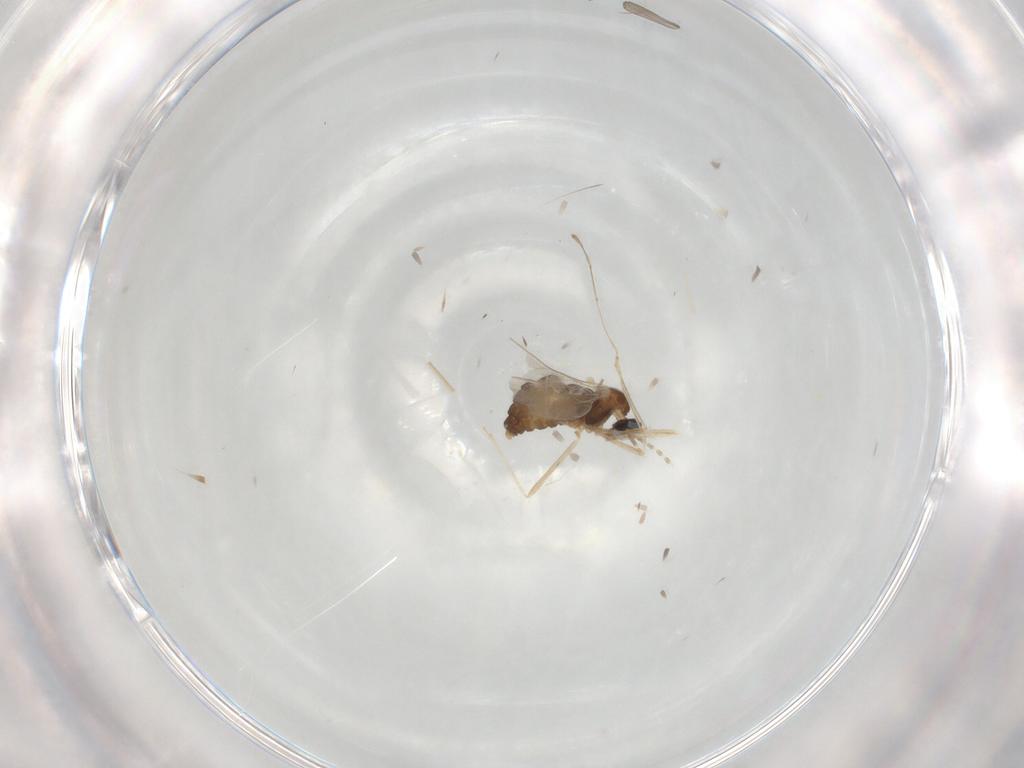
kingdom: Animalia
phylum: Arthropoda
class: Insecta
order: Diptera
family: Cecidomyiidae
